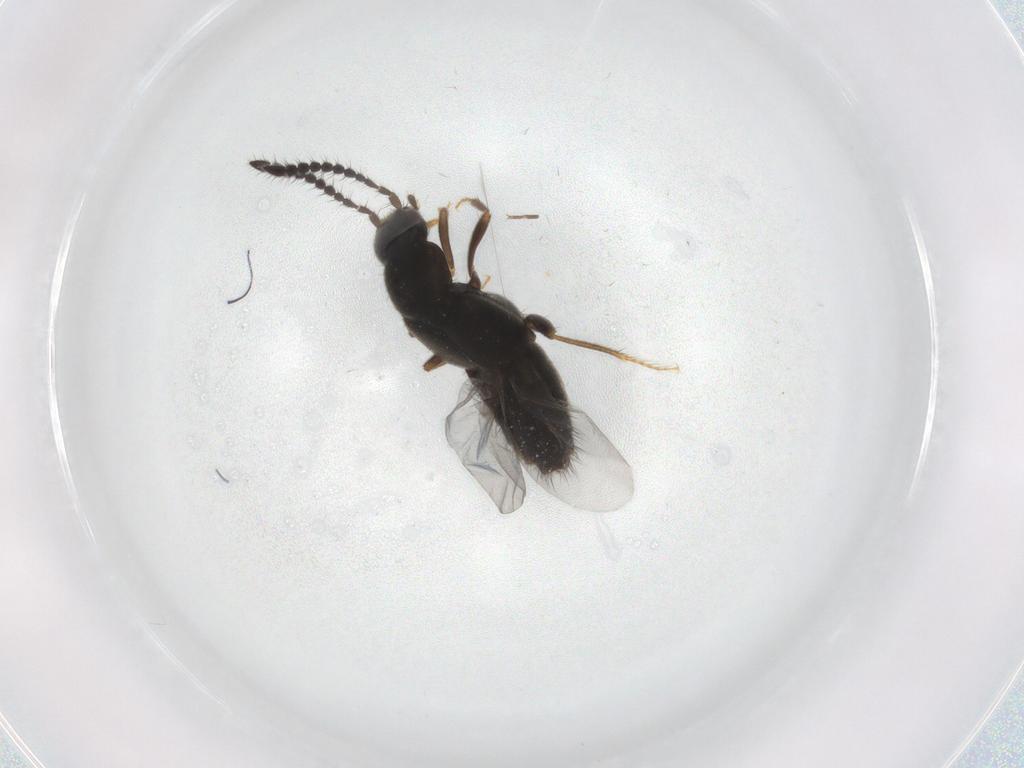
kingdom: Animalia
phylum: Arthropoda
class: Insecta
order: Coleoptera
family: Staphylinidae
